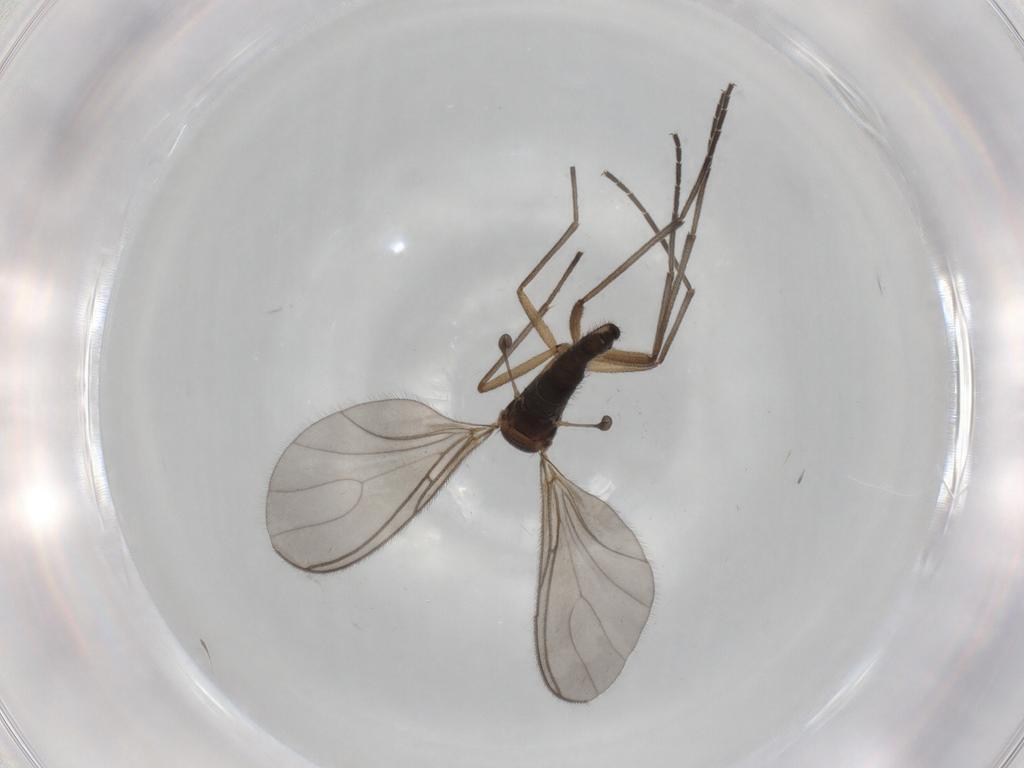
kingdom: Animalia
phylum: Arthropoda
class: Insecta
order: Diptera
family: Sciaridae
